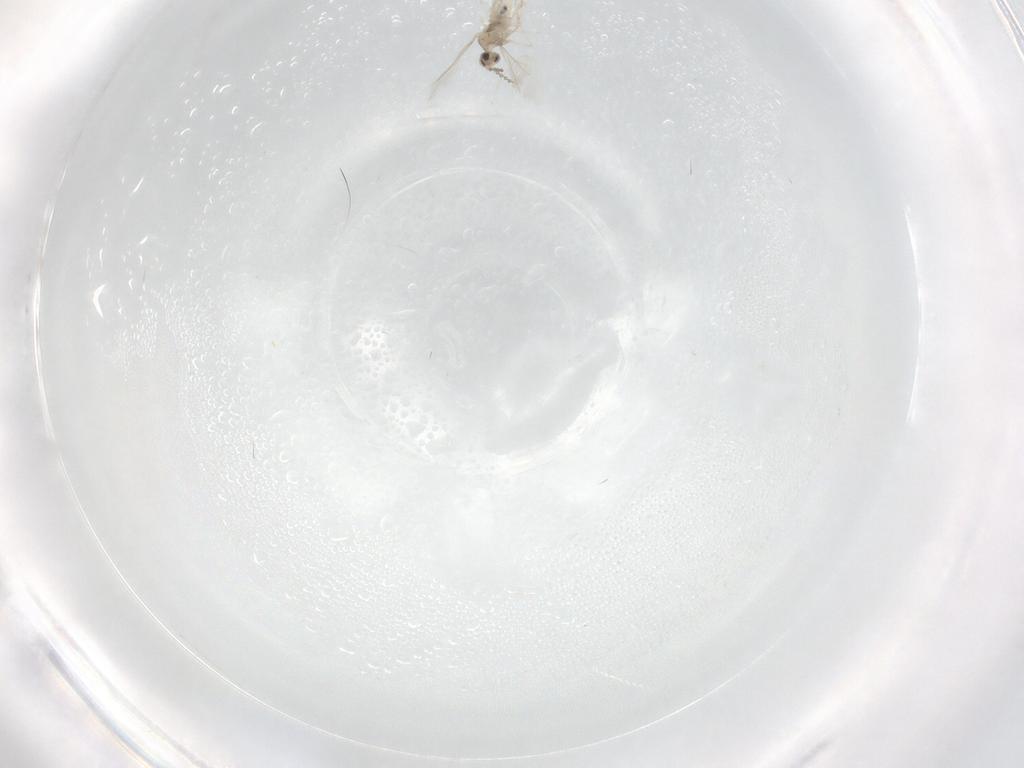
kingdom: Animalia
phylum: Arthropoda
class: Insecta
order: Diptera
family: Cecidomyiidae
